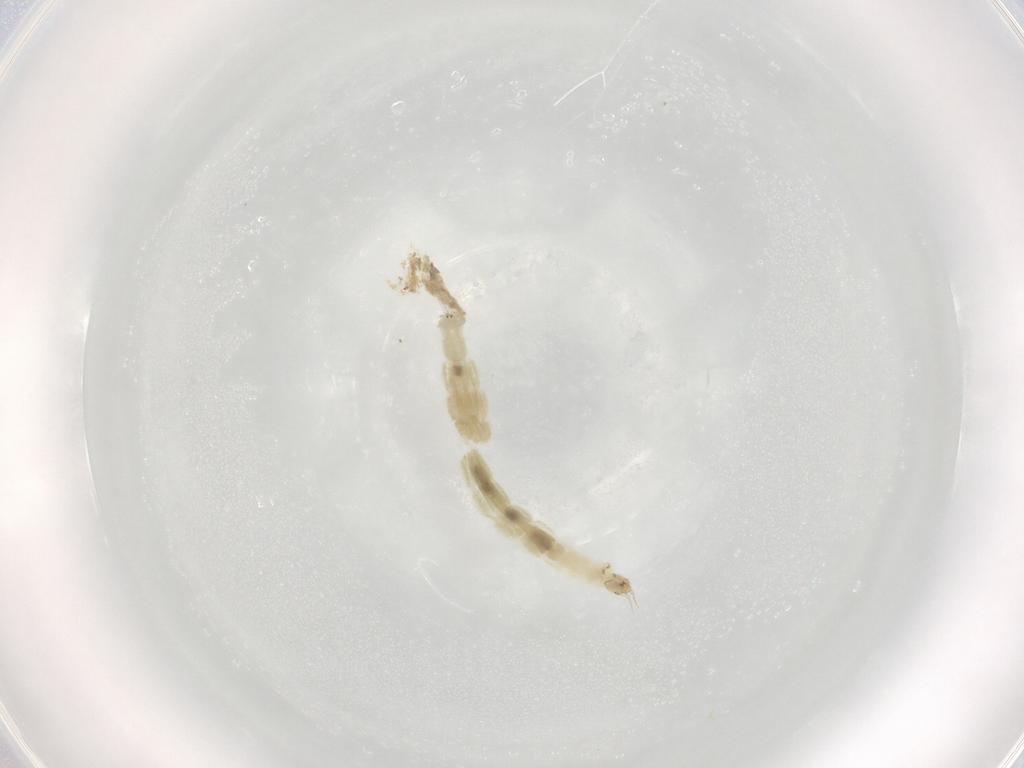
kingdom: Animalia
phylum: Arthropoda
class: Insecta
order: Diptera
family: Chironomidae
